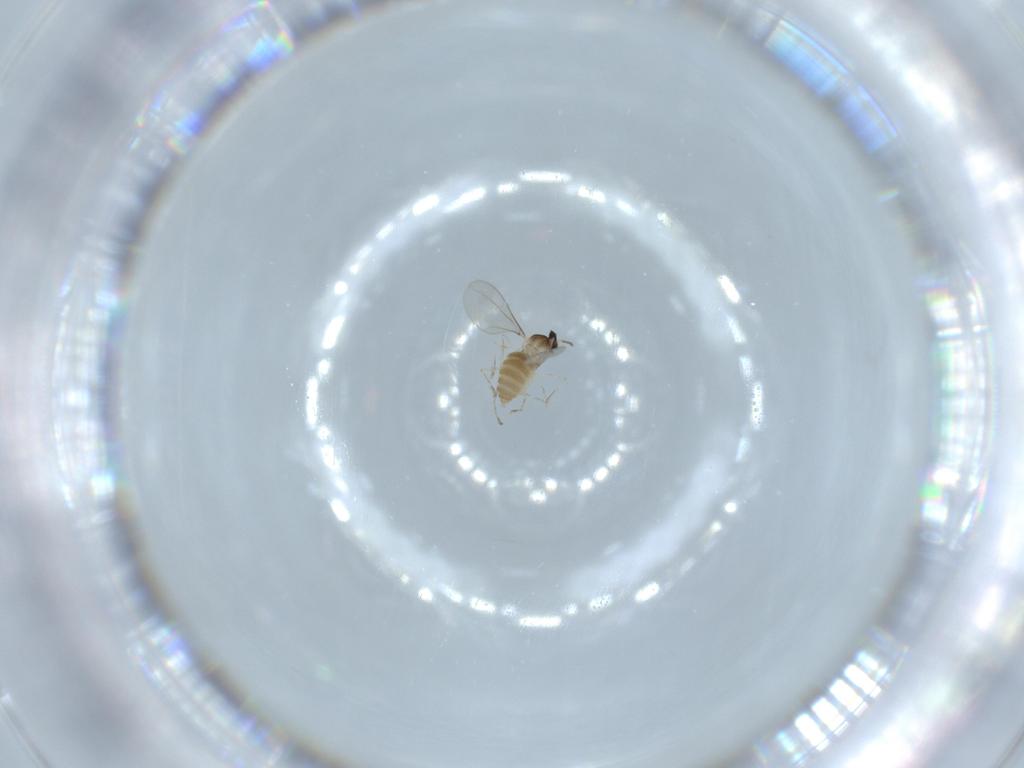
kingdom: Animalia
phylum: Arthropoda
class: Insecta
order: Diptera
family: Cecidomyiidae
